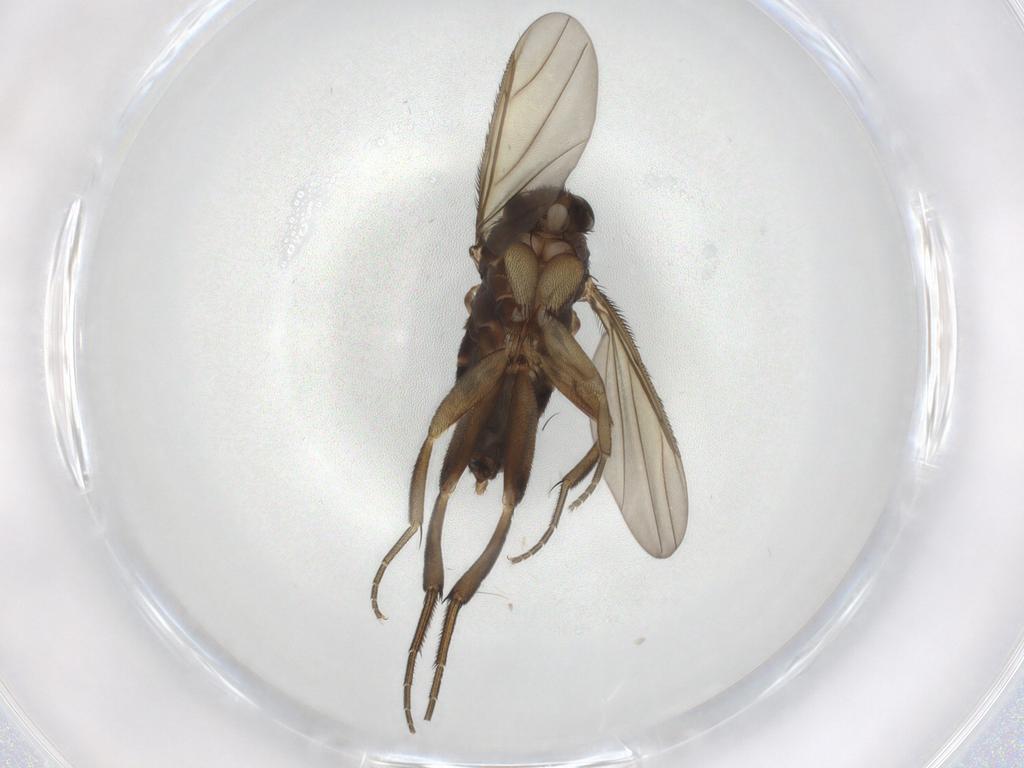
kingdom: Animalia
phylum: Arthropoda
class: Insecta
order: Diptera
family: Phoridae
